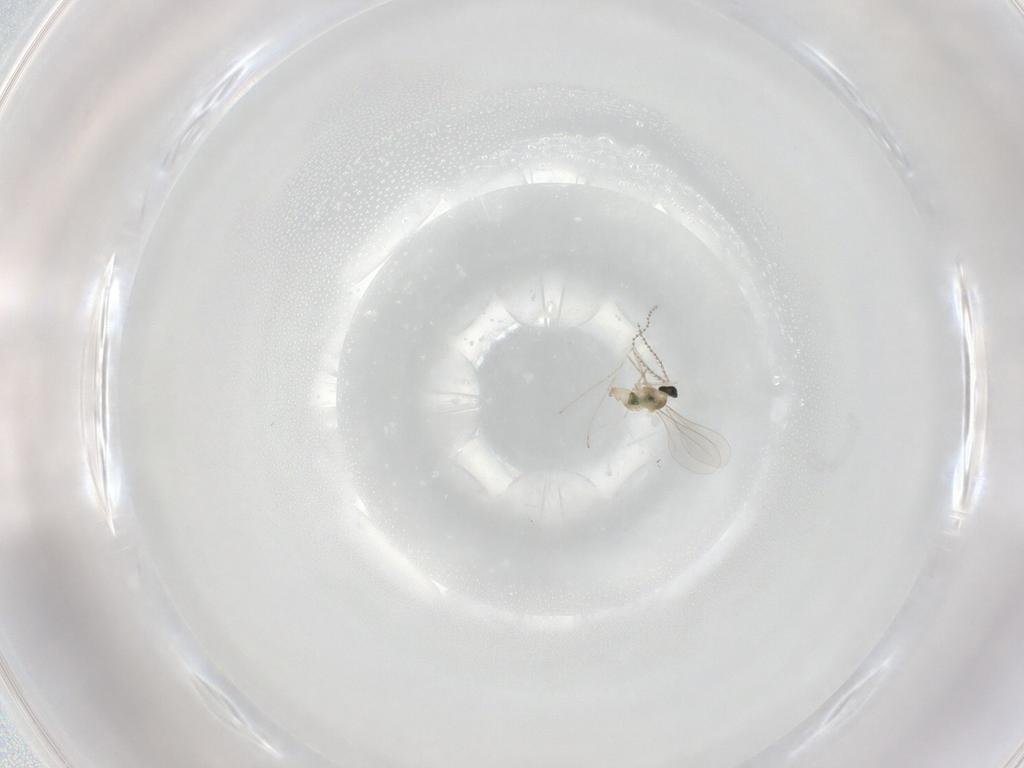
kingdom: Animalia
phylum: Arthropoda
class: Insecta
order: Diptera
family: Cecidomyiidae
